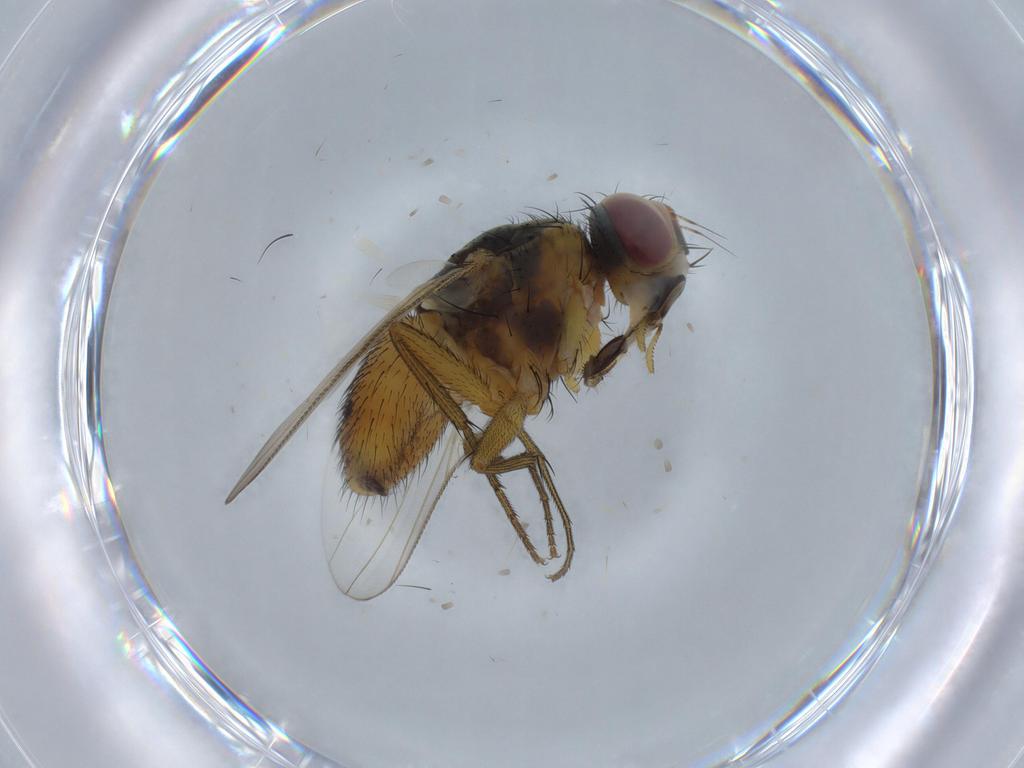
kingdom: Animalia
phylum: Arthropoda
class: Insecta
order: Diptera
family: Muscidae
